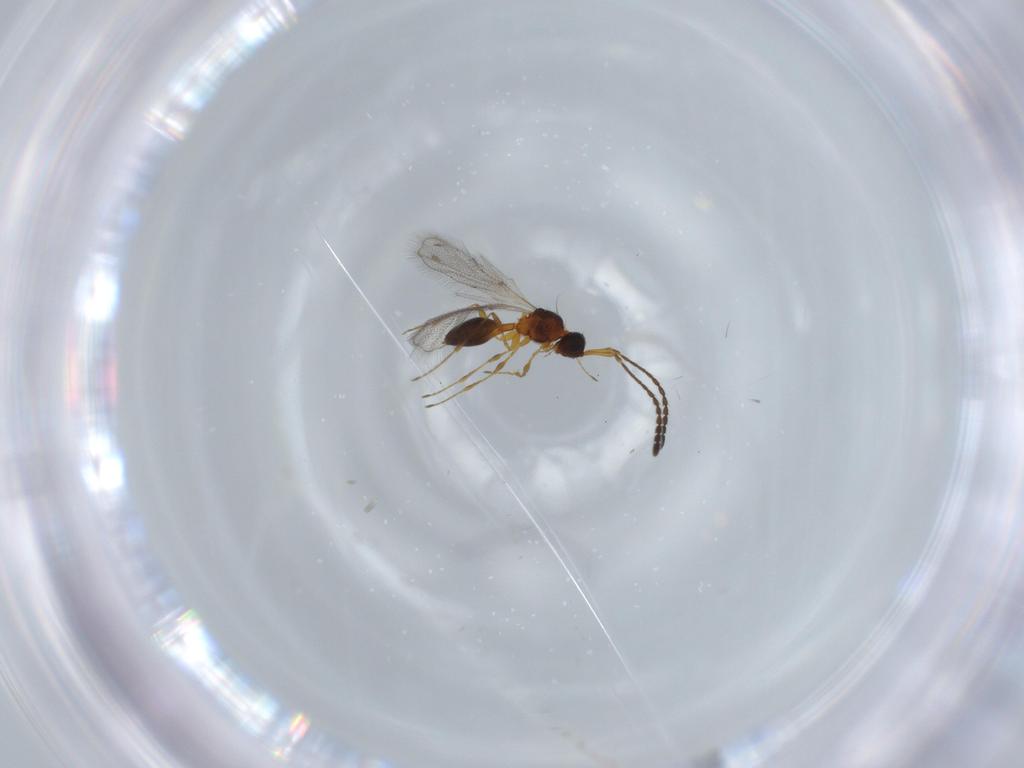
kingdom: Animalia
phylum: Arthropoda
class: Insecta
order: Hymenoptera
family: Diapriidae
